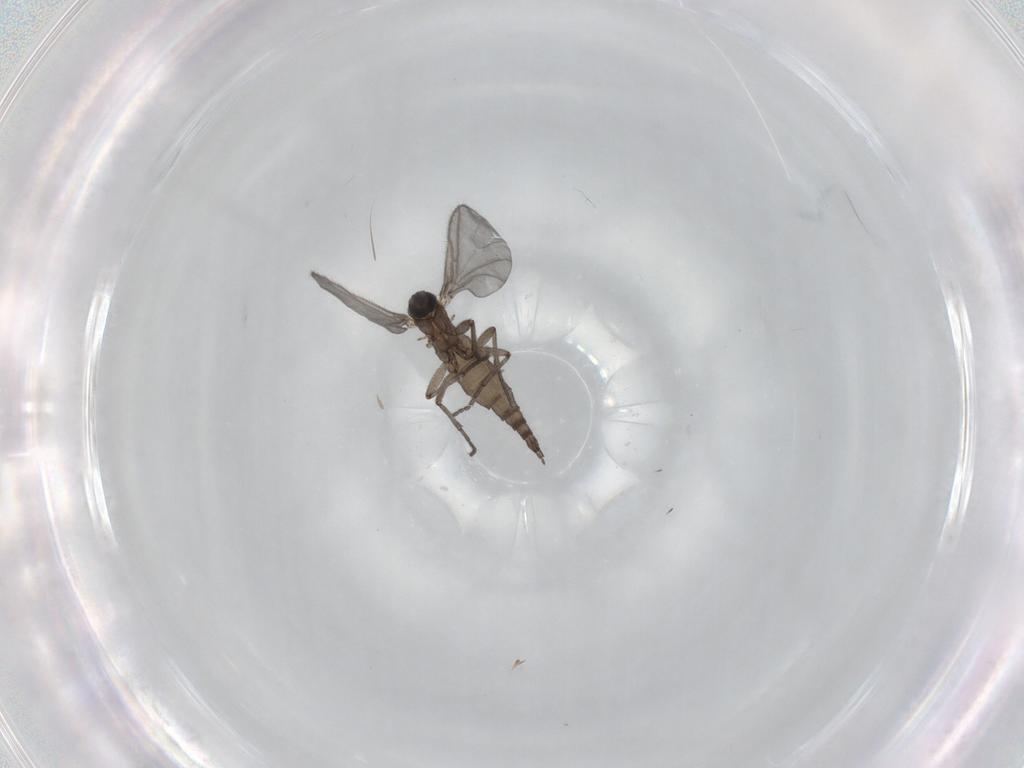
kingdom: Animalia
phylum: Arthropoda
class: Insecta
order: Diptera
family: Sciaridae
